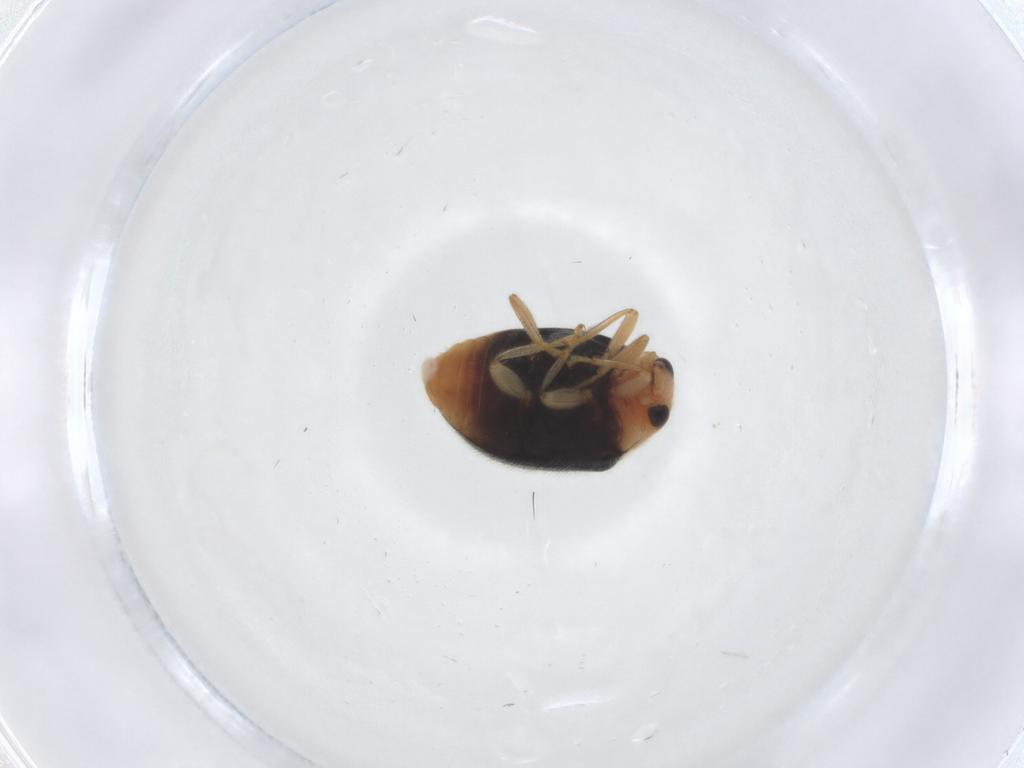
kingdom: Animalia
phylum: Arthropoda
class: Insecta
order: Coleoptera
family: Coccinellidae
